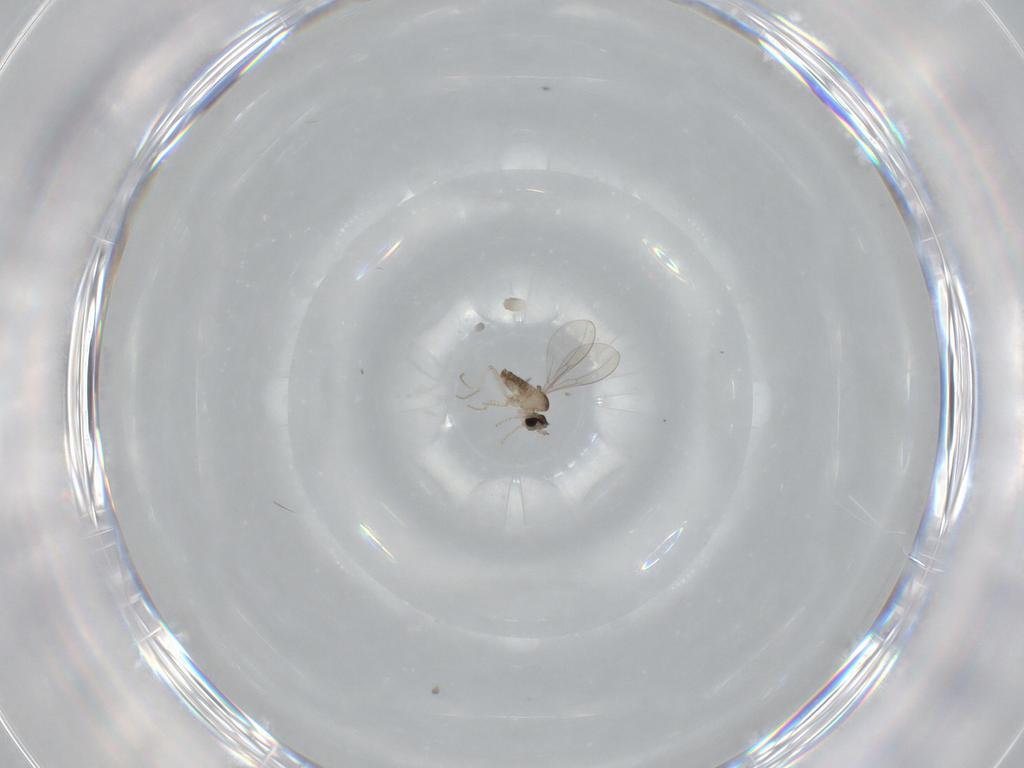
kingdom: Animalia
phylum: Arthropoda
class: Insecta
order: Diptera
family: Cecidomyiidae
